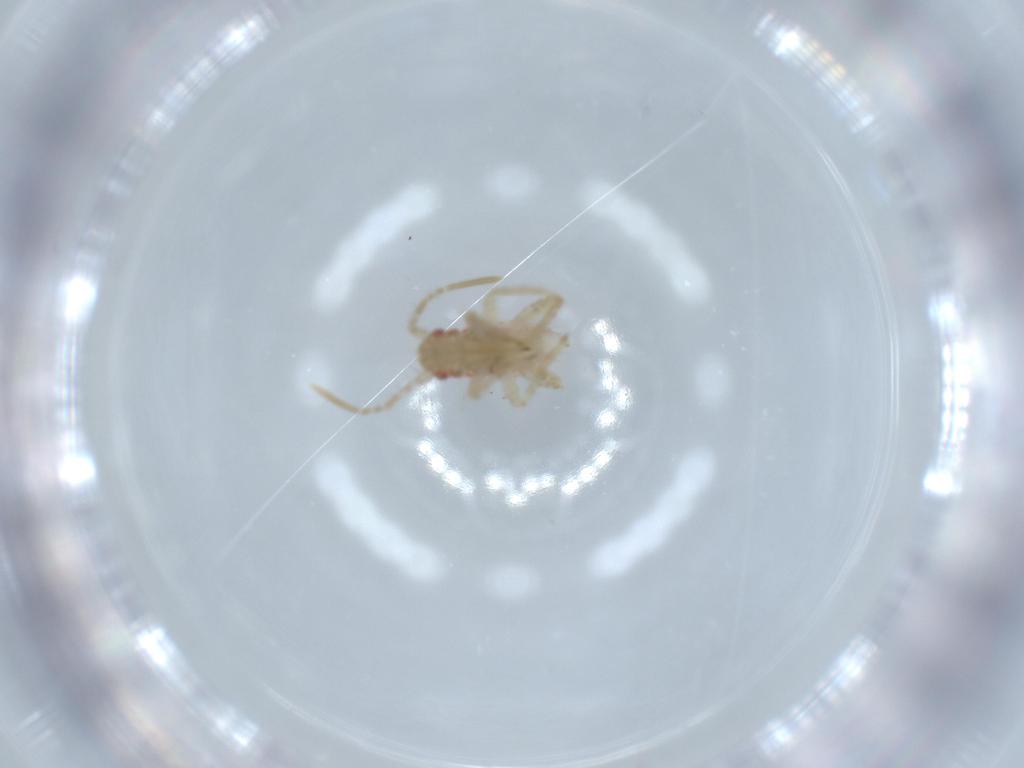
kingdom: Animalia
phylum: Arthropoda
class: Insecta
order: Hemiptera
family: Miridae
